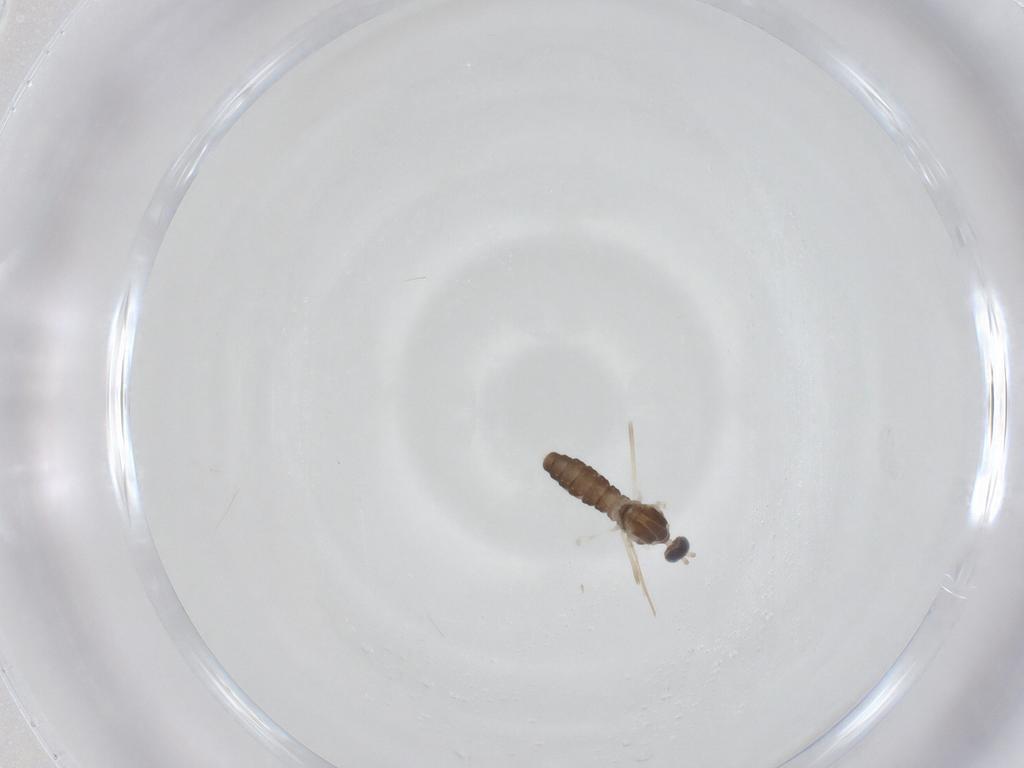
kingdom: Animalia
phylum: Arthropoda
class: Insecta
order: Diptera
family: Cecidomyiidae
